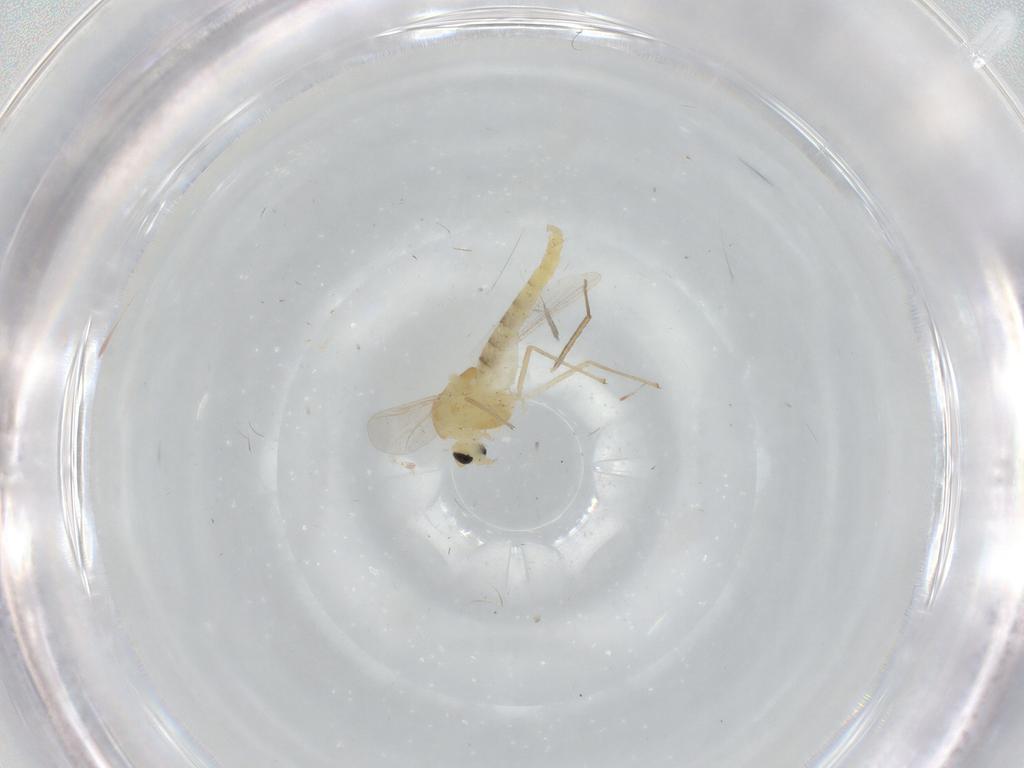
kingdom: Animalia
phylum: Arthropoda
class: Insecta
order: Diptera
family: Chironomidae
